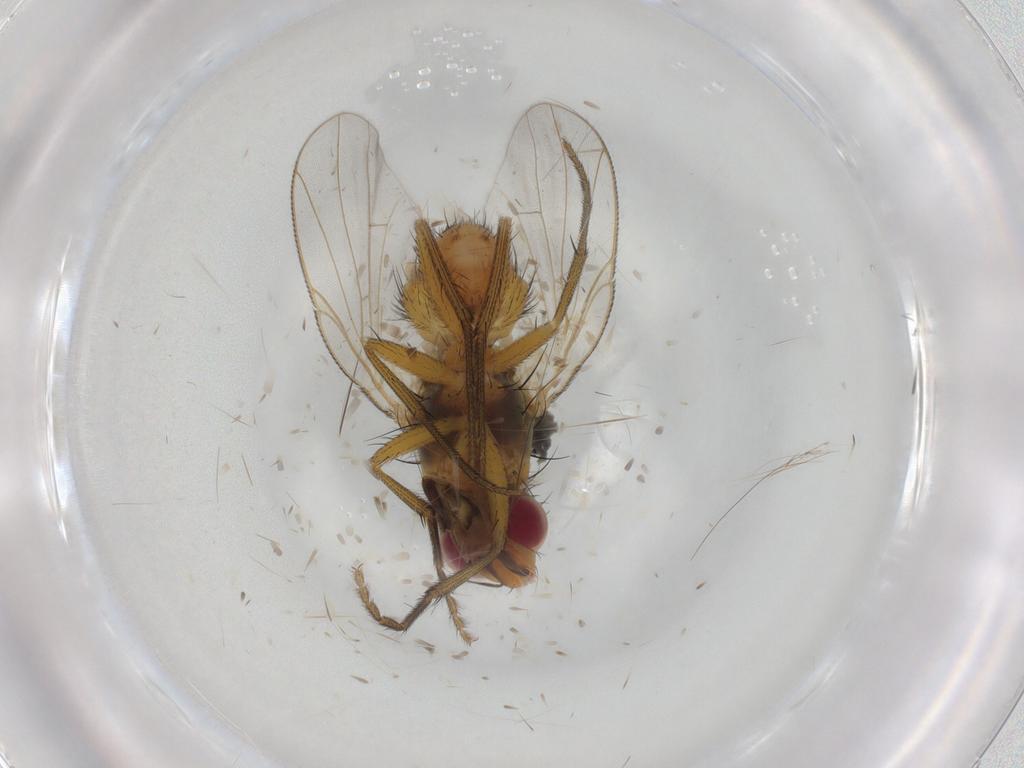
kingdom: Animalia
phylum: Arthropoda
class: Insecta
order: Diptera
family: Muscidae
